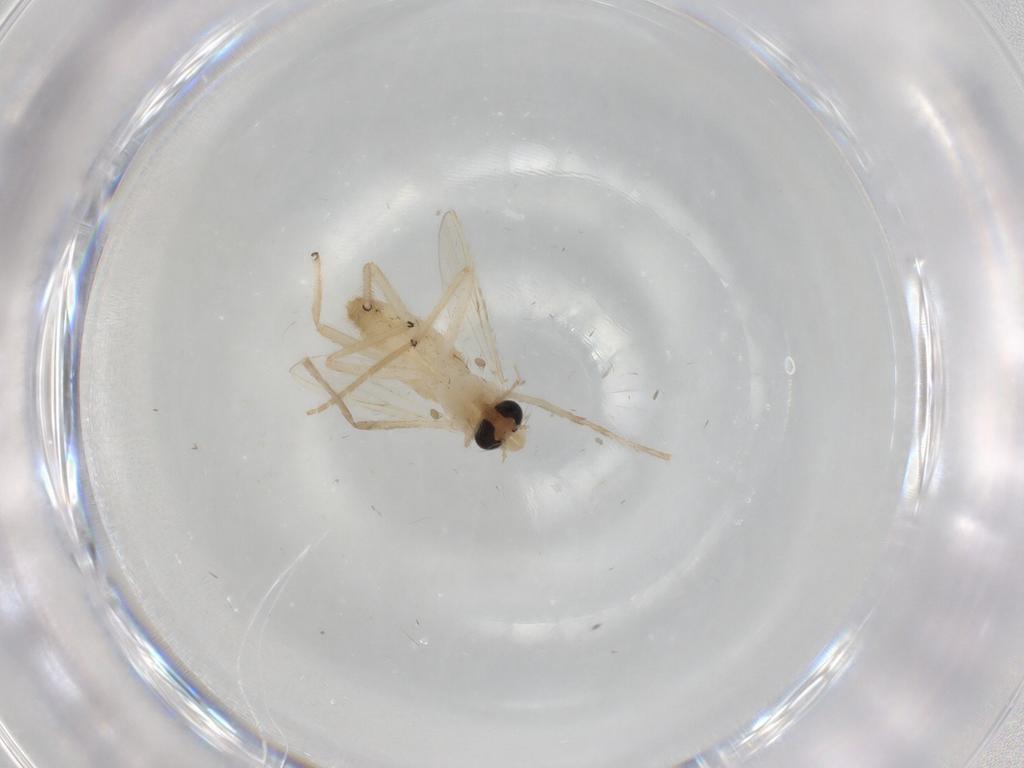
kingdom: Animalia
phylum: Arthropoda
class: Insecta
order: Diptera
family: Chironomidae
